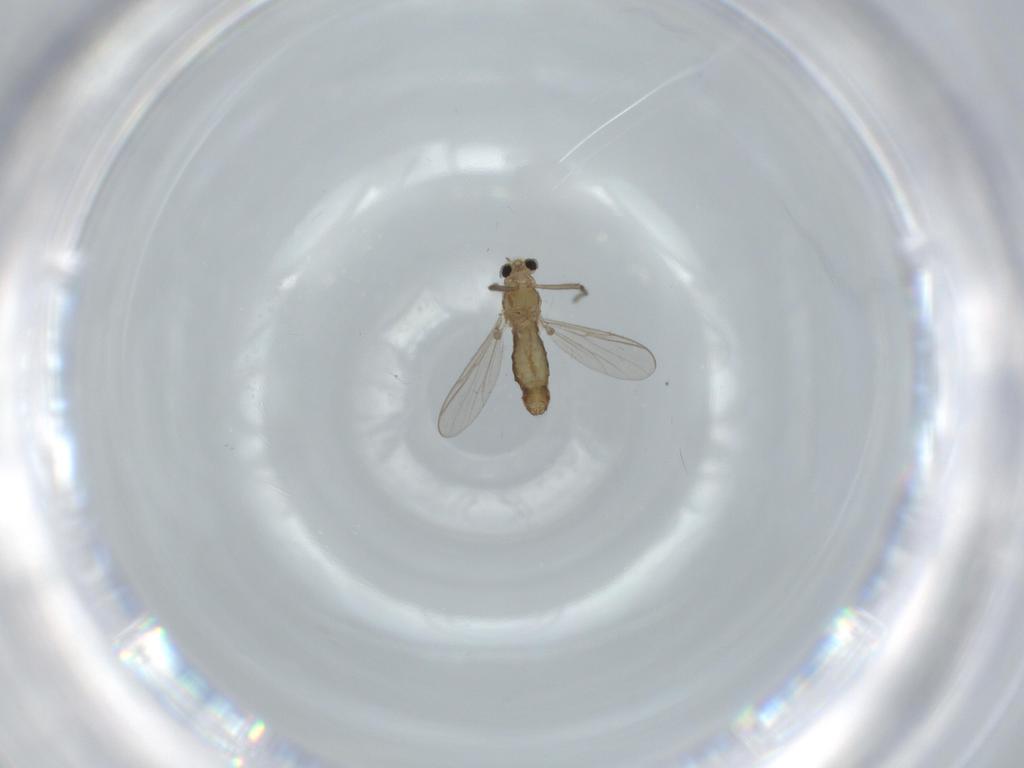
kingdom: Animalia
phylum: Arthropoda
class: Insecta
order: Diptera
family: Chironomidae
